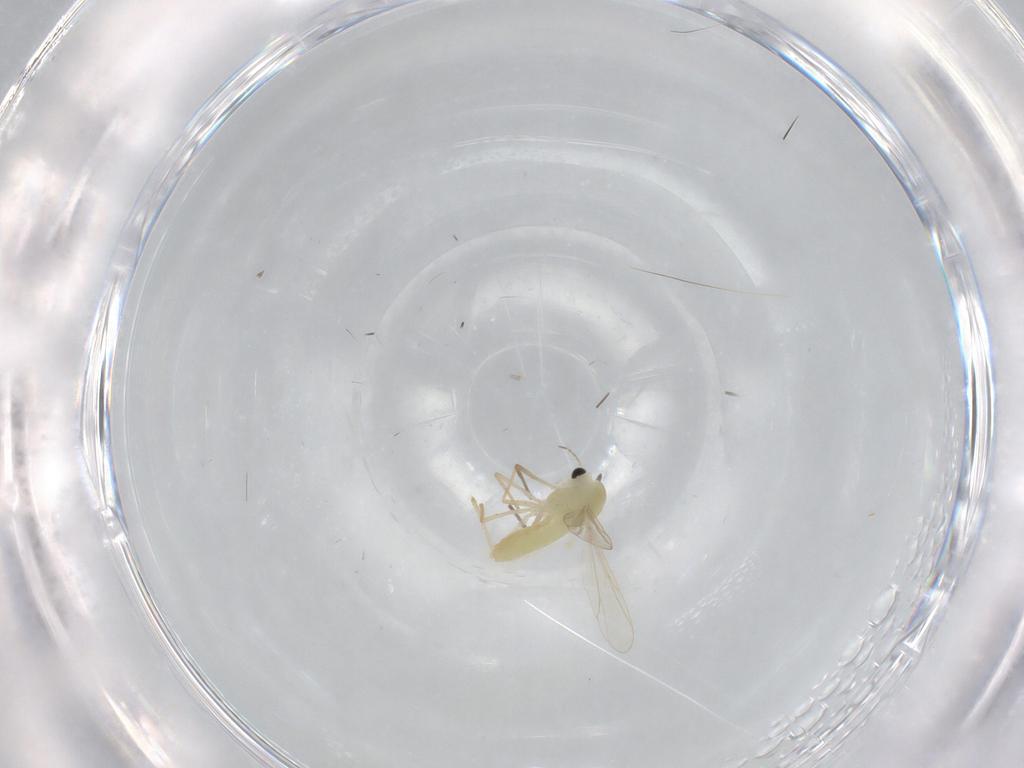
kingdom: Animalia
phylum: Arthropoda
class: Insecta
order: Diptera
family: Chironomidae
